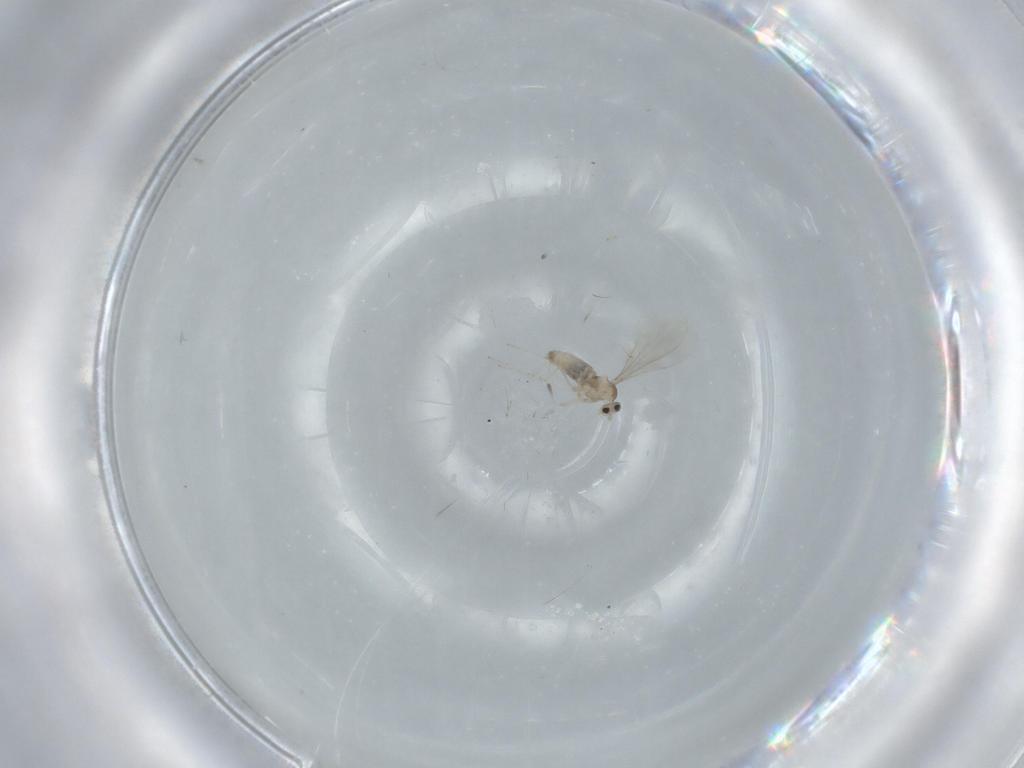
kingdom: Animalia
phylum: Arthropoda
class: Insecta
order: Diptera
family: Cecidomyiidae
